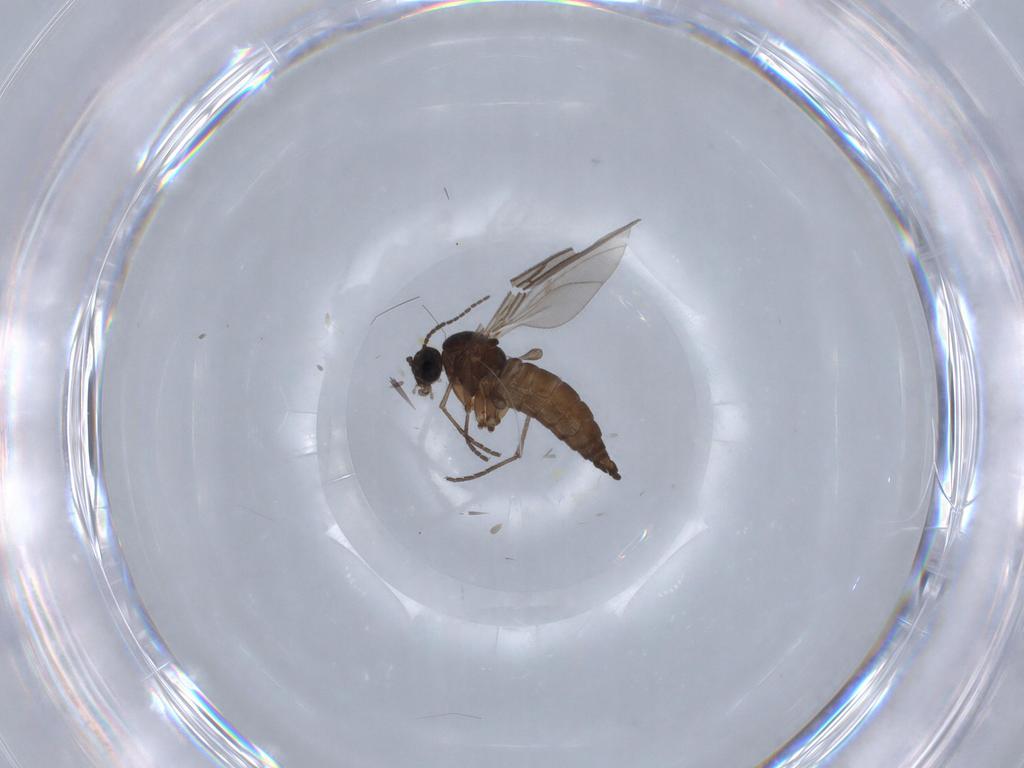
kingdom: Animalia
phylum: Arthropoda
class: Insecta
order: Diptera
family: Sciaridae
